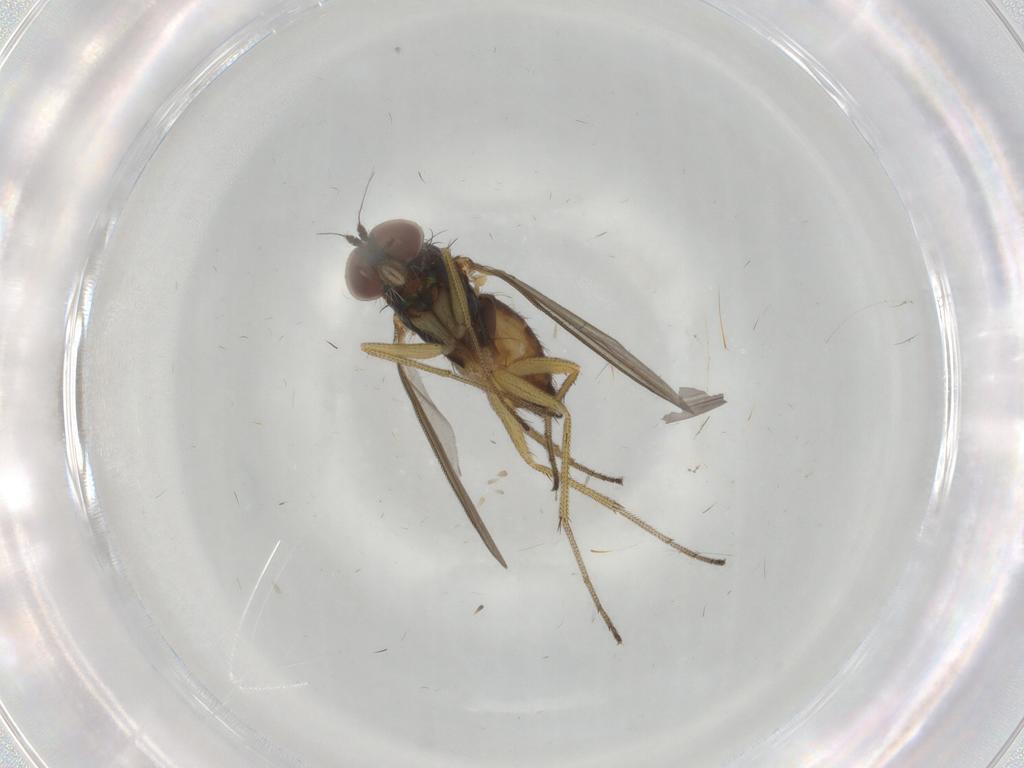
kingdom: Animalia
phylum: Arthropoda
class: Insecta
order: Diptera
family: Dolichopodidae
